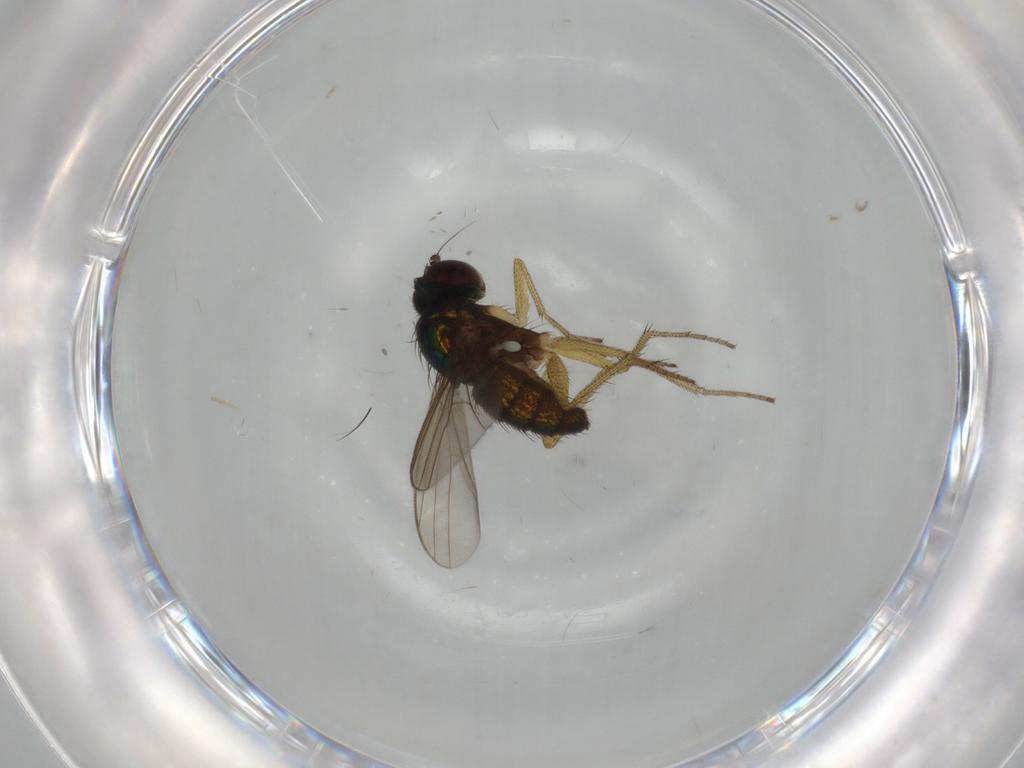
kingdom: Animalia
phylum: Arthropoda
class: Insecta
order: Diptera
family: Dolichopodidae
